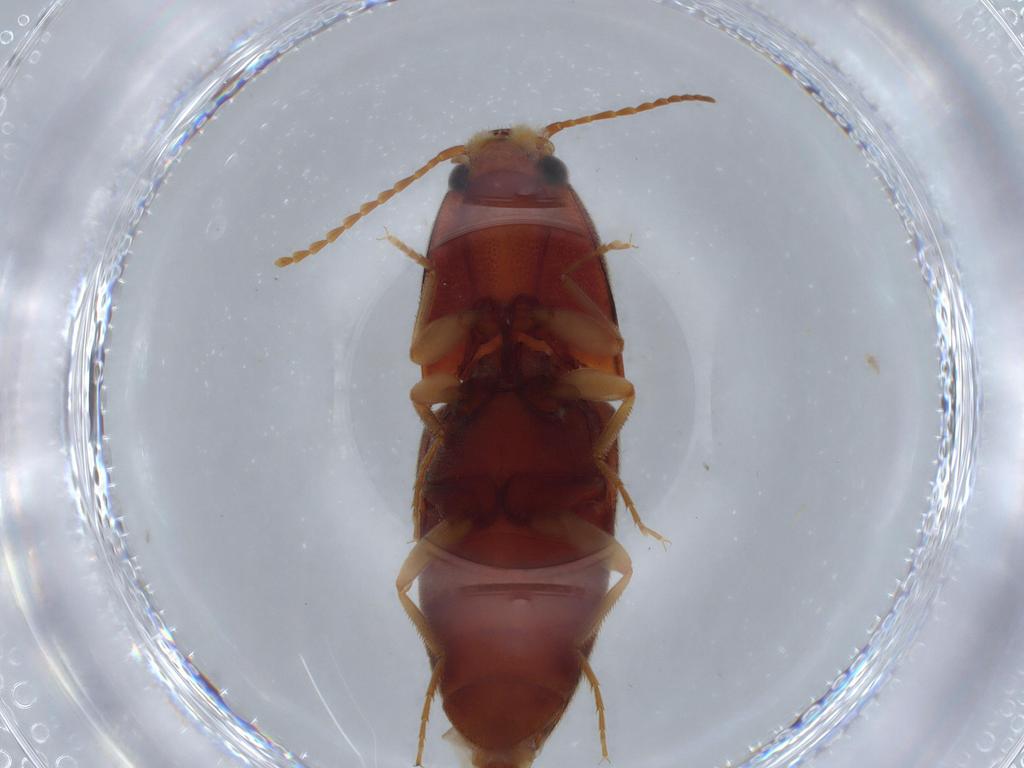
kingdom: Animalia
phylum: Arthropoda
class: Insecta
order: Coleoptera
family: Elateridae
